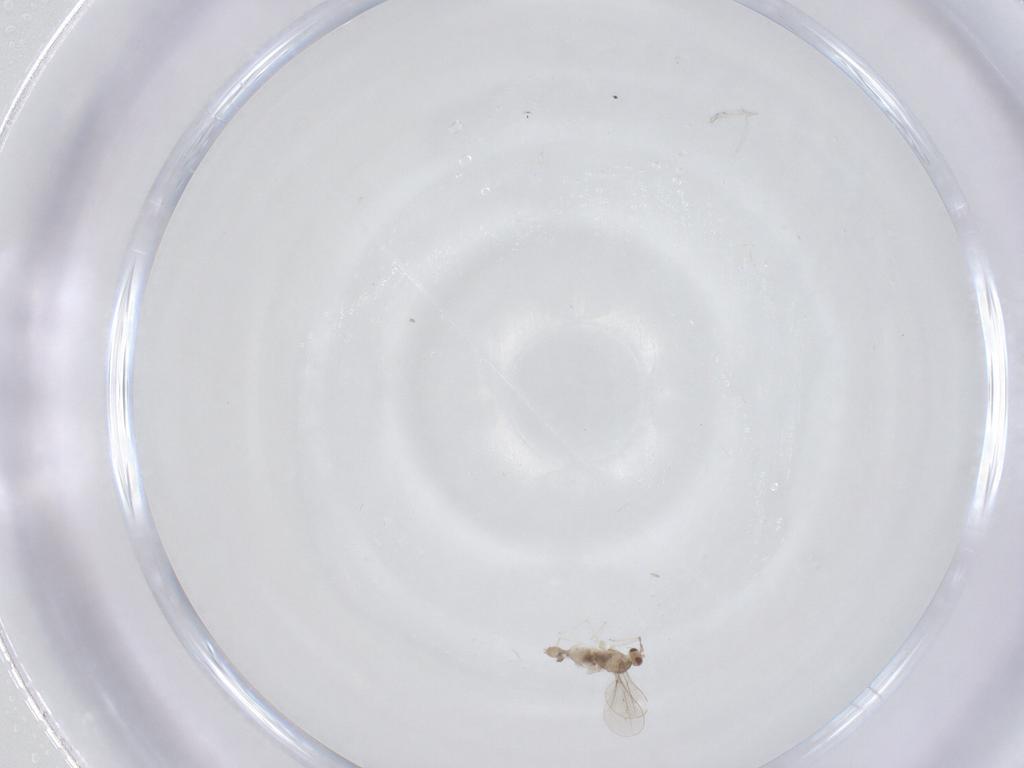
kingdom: Animalia
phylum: Arthropoda
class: Insecta
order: Diptera
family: Cecidomyiidae
